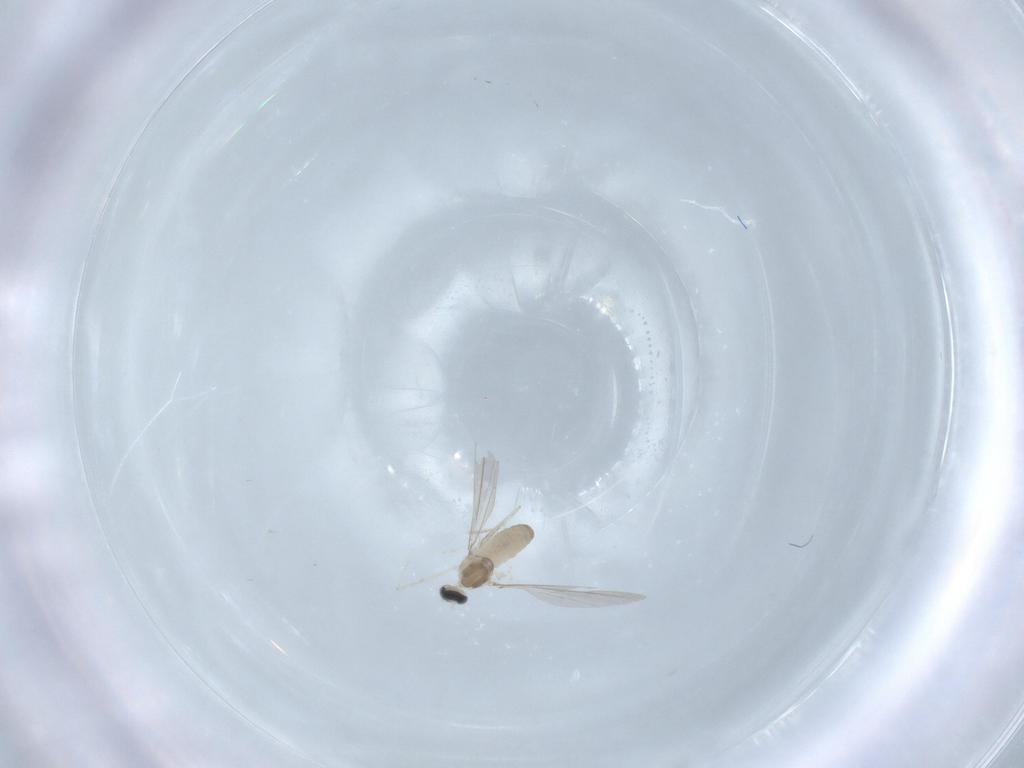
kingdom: Animalia
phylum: Arthropoda
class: Insecta
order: Diptera
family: Cecidomyiidae
